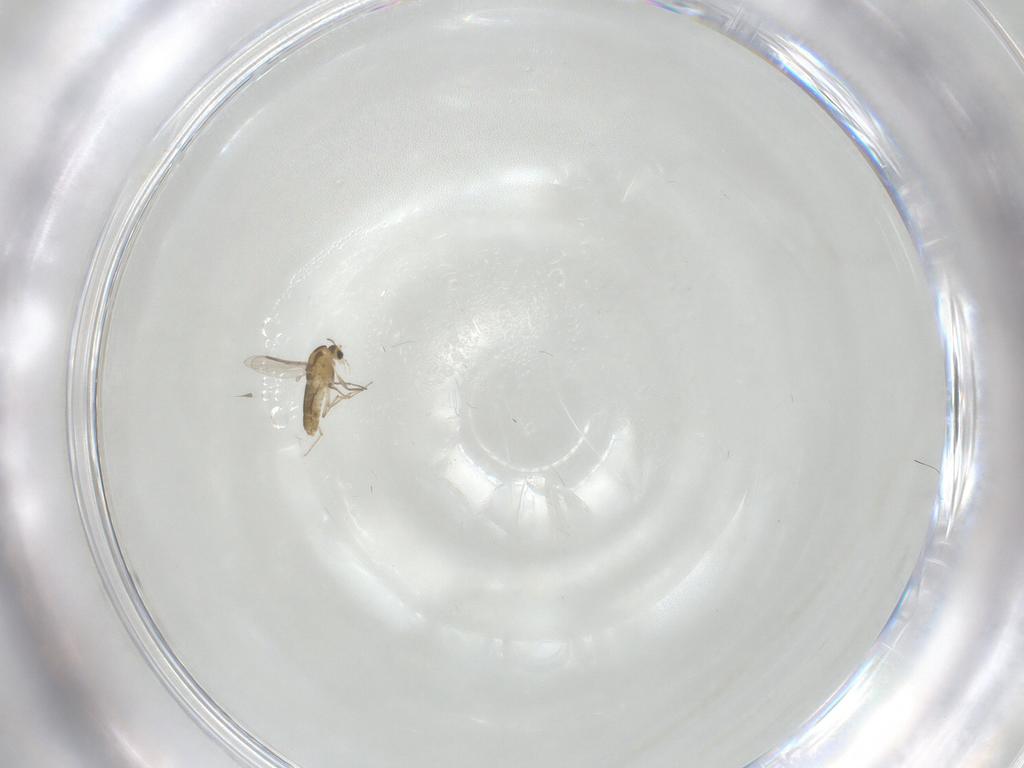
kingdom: Animalia
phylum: Arthropoda
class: Insecta
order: Diptera
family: Chironomidae
